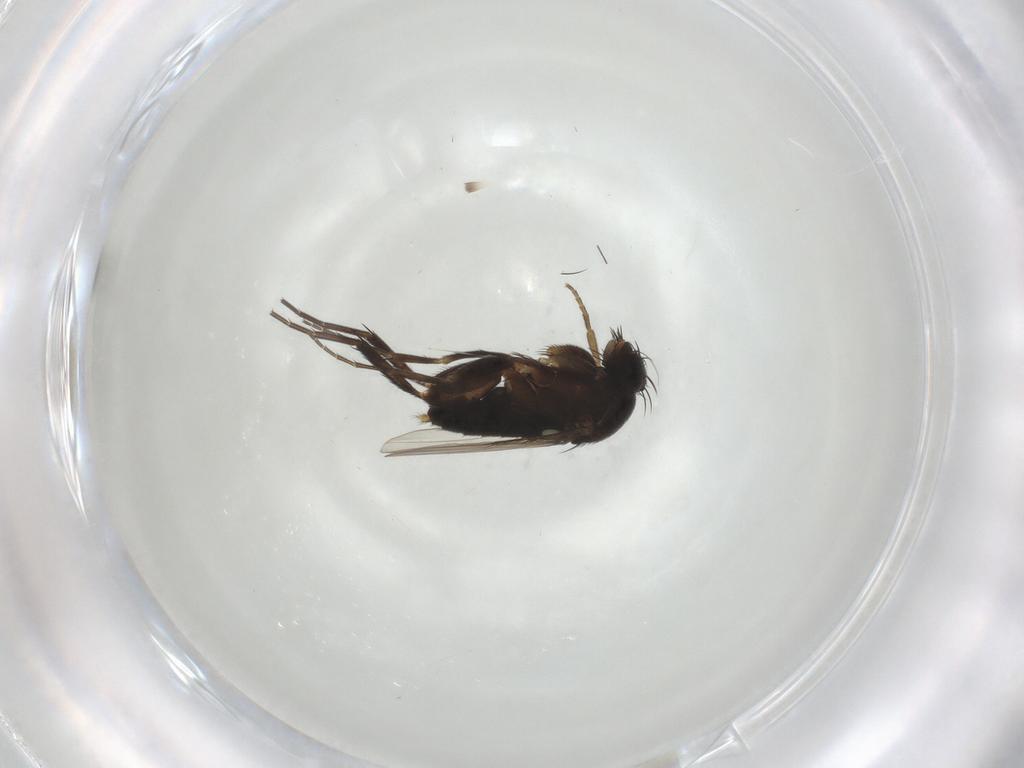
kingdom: Animalia
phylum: Arthropoda
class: Insecta
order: Diptera
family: Phoridae
